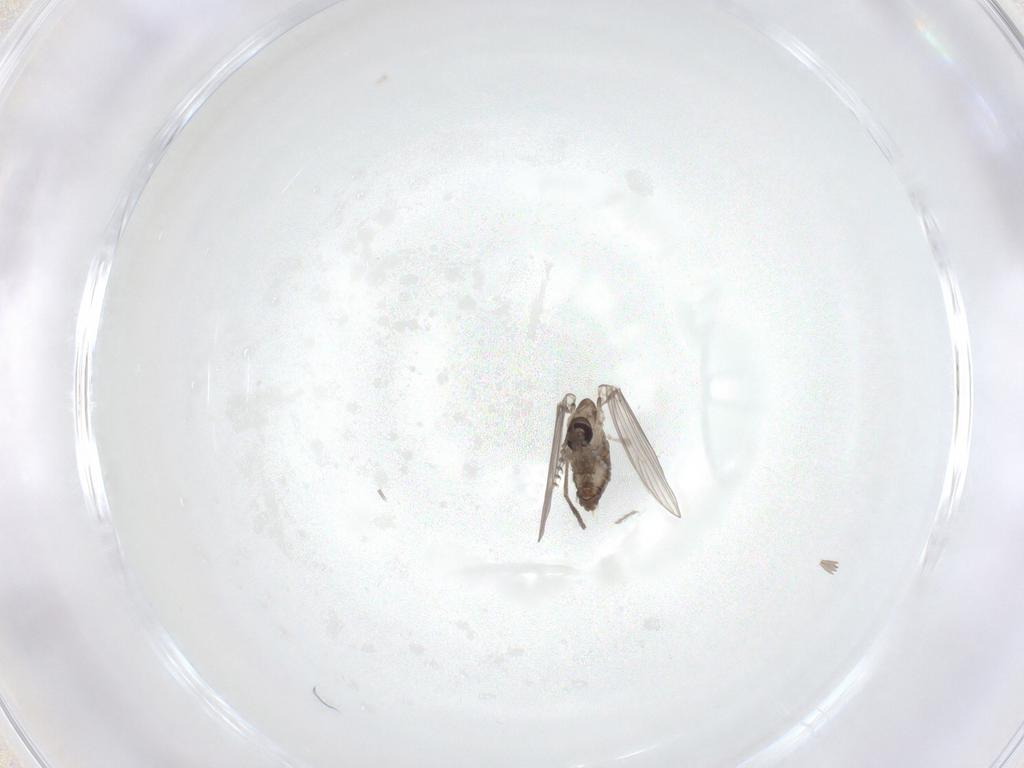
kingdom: Animalia
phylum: Arthropoda
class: Insecta
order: Diptera
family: Psychodidae
